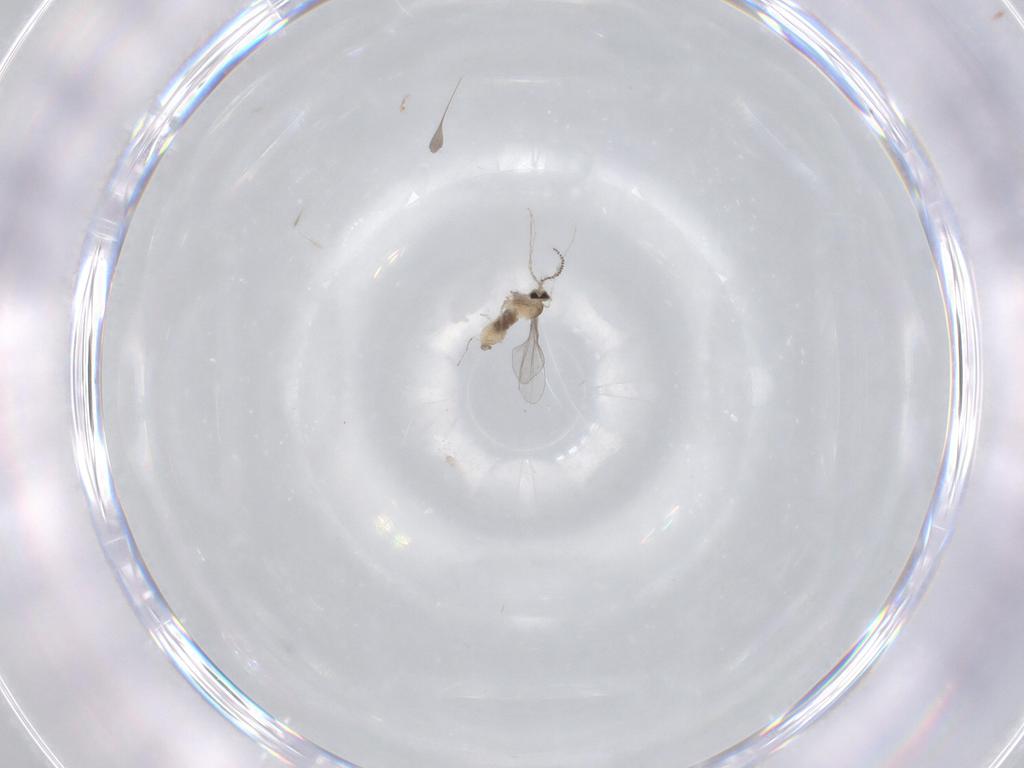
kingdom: Animalia
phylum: Arthropoda
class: Insecta
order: Diptera
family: Cecidomyiidae
